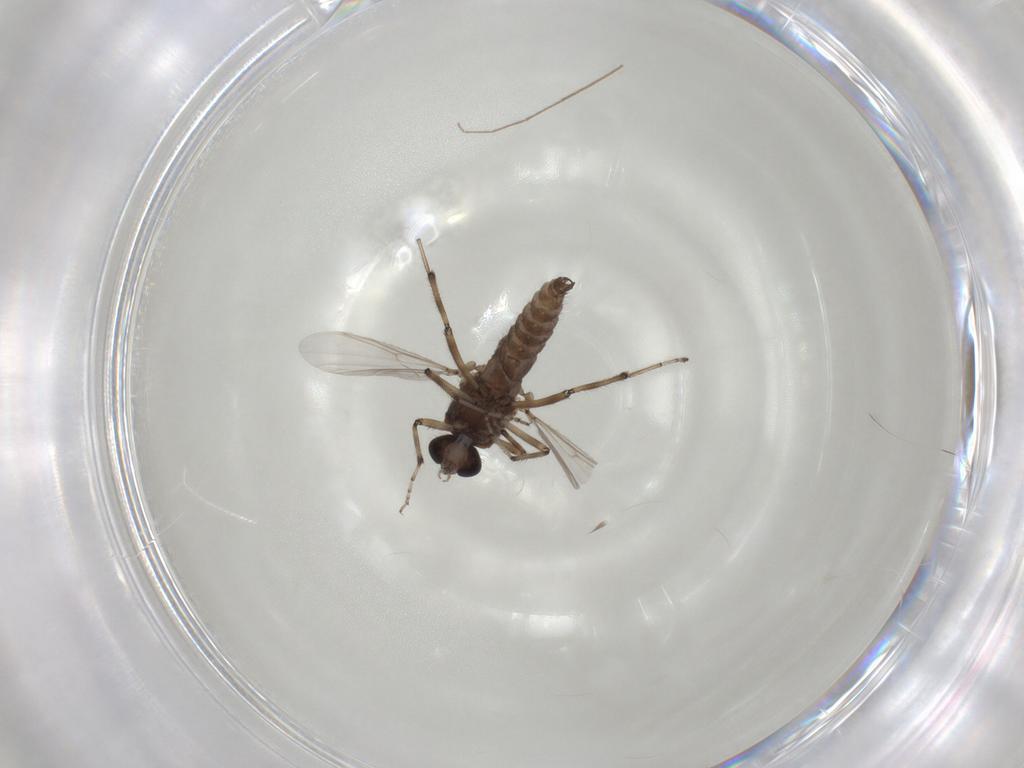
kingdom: Animalia
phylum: Arthropoda
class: Insecta
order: Diptera
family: Ceratopogonidae
